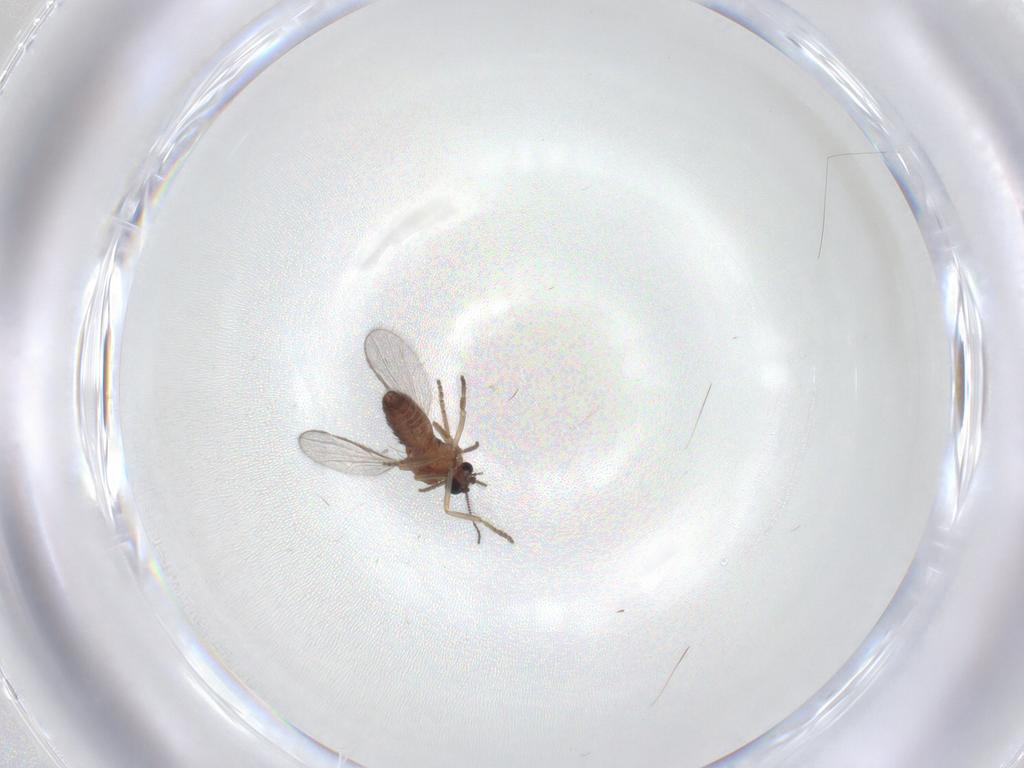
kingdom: Animalia
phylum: Arthropoda
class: Insecta
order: Diptera
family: Ceratopogonidae
